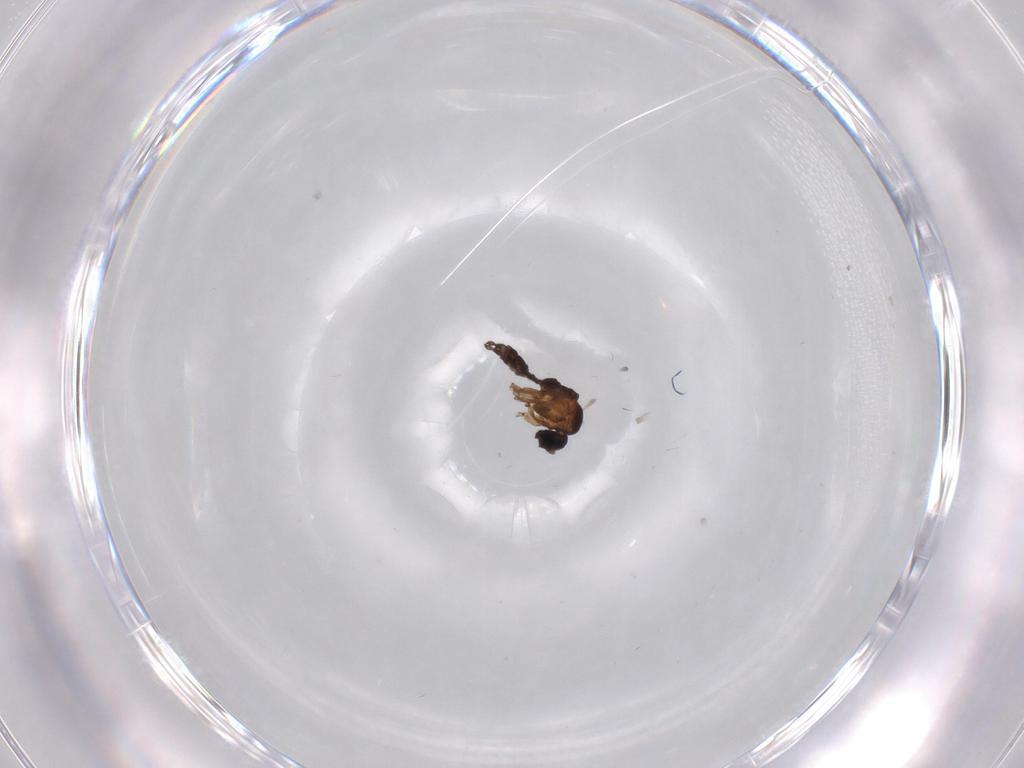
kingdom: Animalia
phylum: Arthropoda
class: Insecta
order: Diptera
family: Sciaridae
